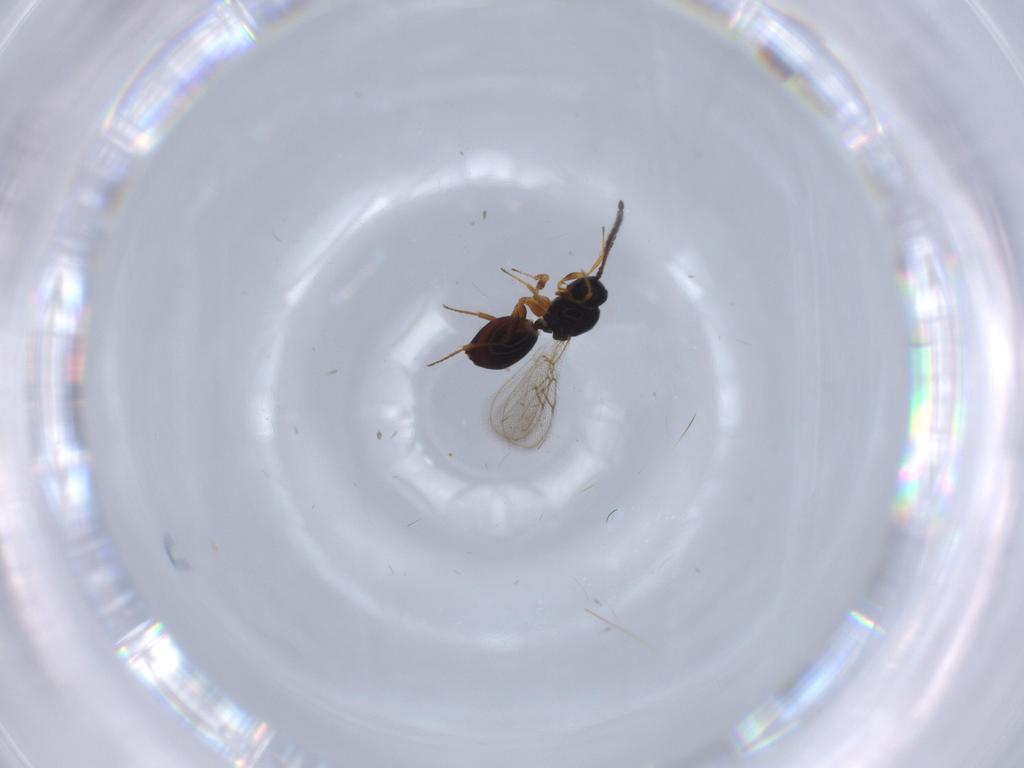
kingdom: Animalia
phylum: Arthropoda
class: Insecta
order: Hymenoptera
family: Figitidae
